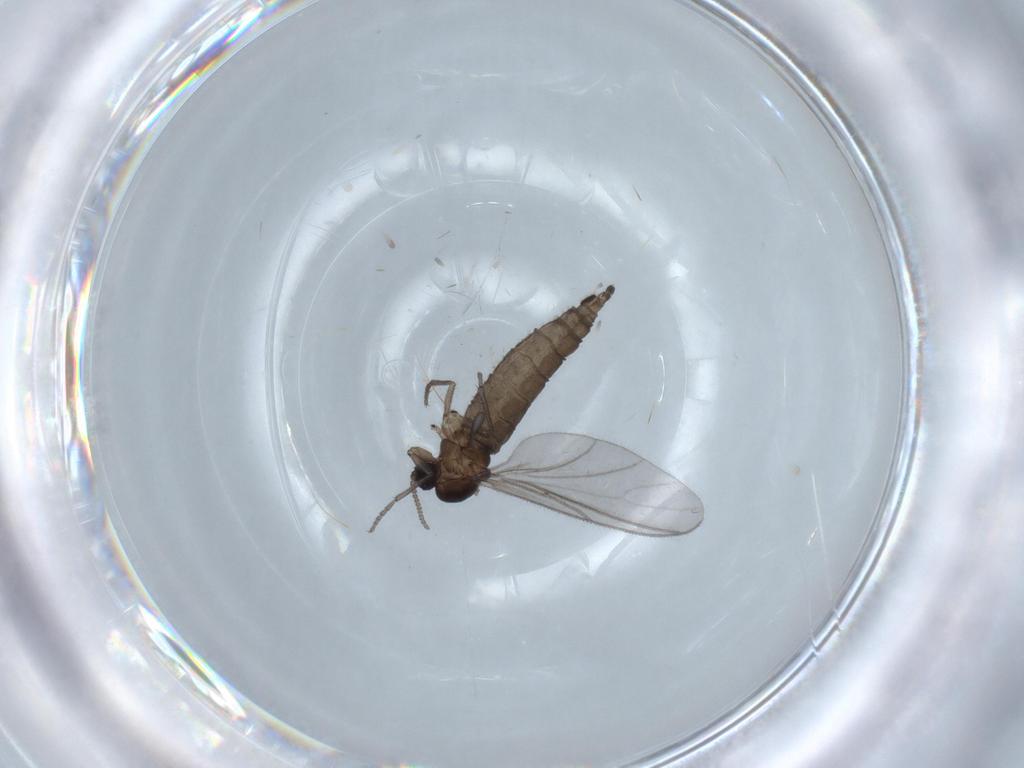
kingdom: Animalia
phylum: Arthropoda
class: Insecta
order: Diptera
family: Sciaridae
